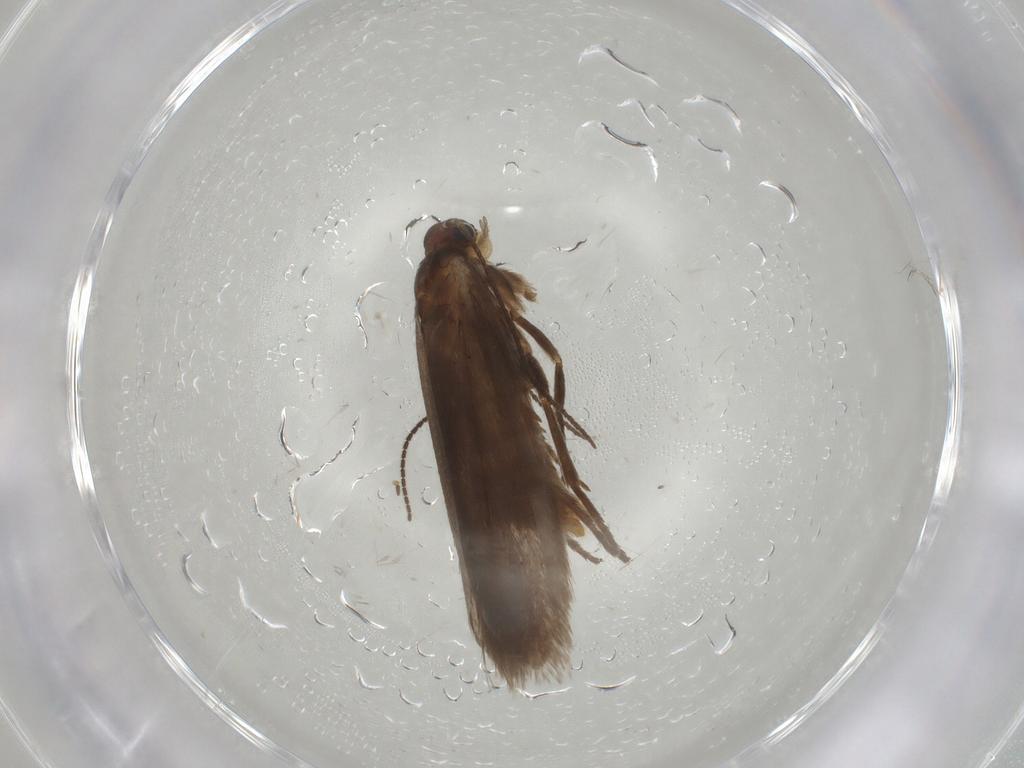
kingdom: Animalia
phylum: Arthropoda
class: Insecta
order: Lepidoptera
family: Limacodidae
